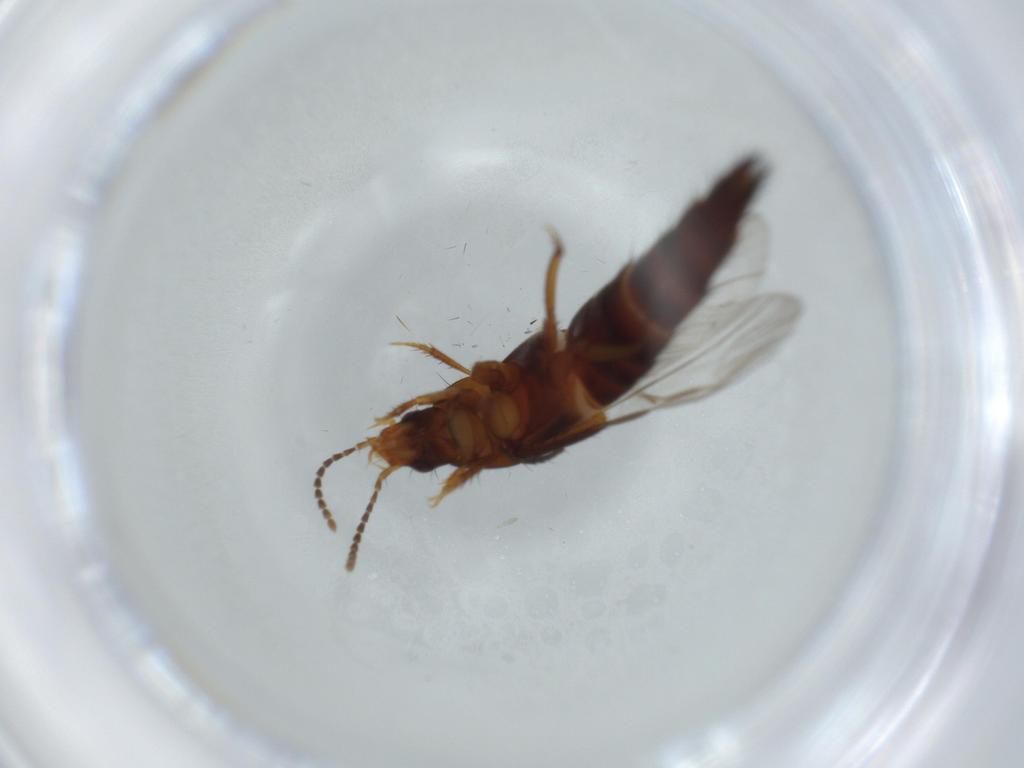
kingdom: Animalia
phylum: Arthropoda
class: Insecta
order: Coleoptera
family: Staphylinidae
